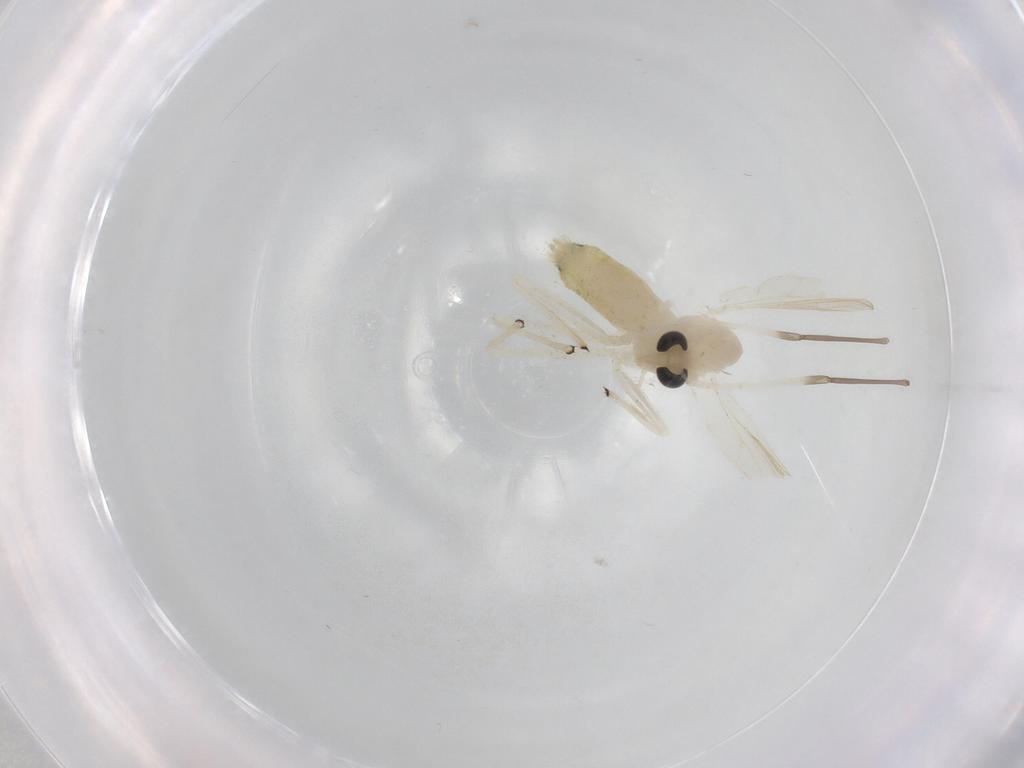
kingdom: Animalia
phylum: Arthropoda
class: Insecta
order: Diptera
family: Chironomidae
